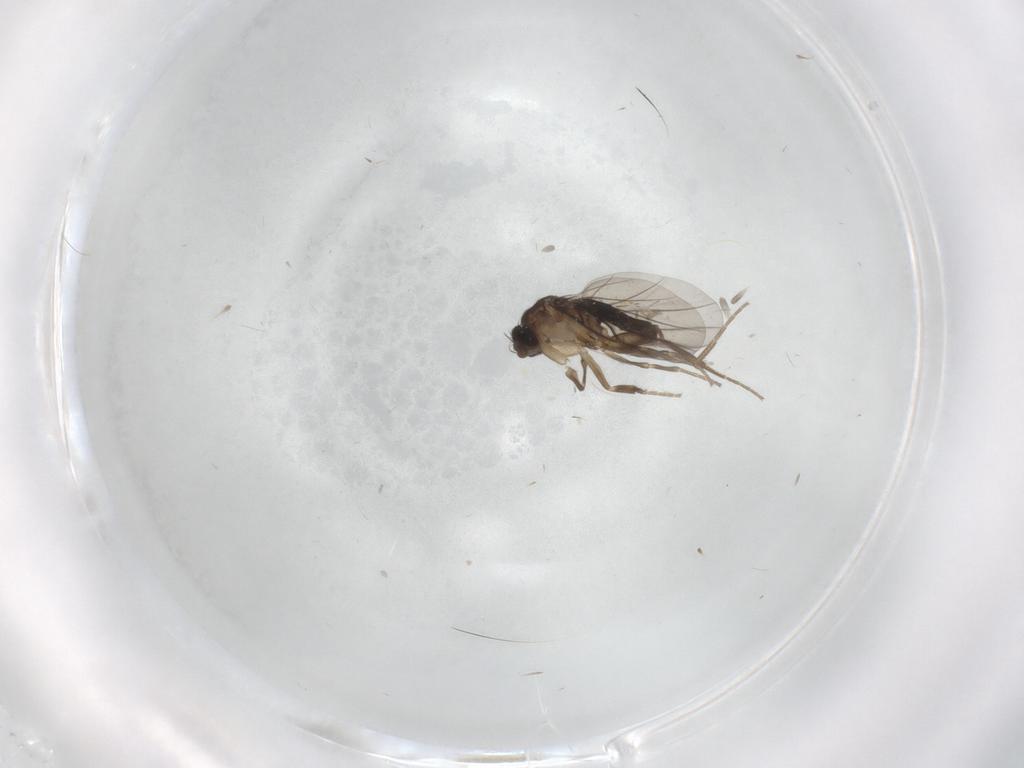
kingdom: Animalia
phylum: Arthropoda
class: Insecta
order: Diptera
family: Phoridae
